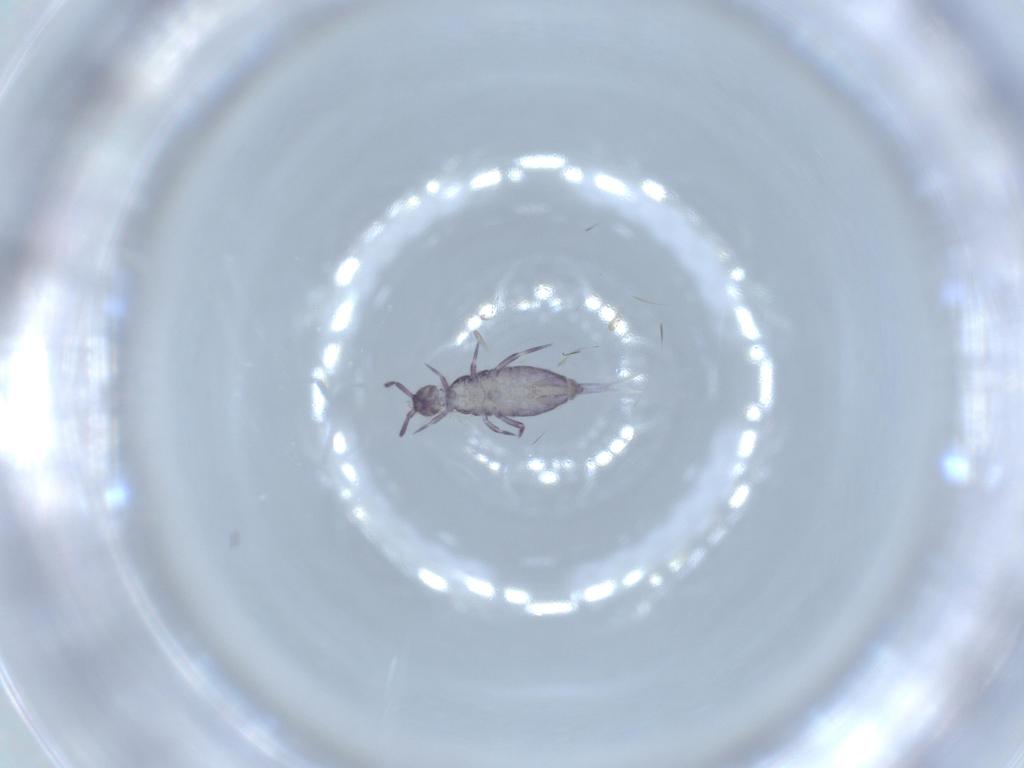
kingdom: Animalia
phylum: Arthropoda
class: Collembola
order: Entomobryomorpha
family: Entomobryidae
